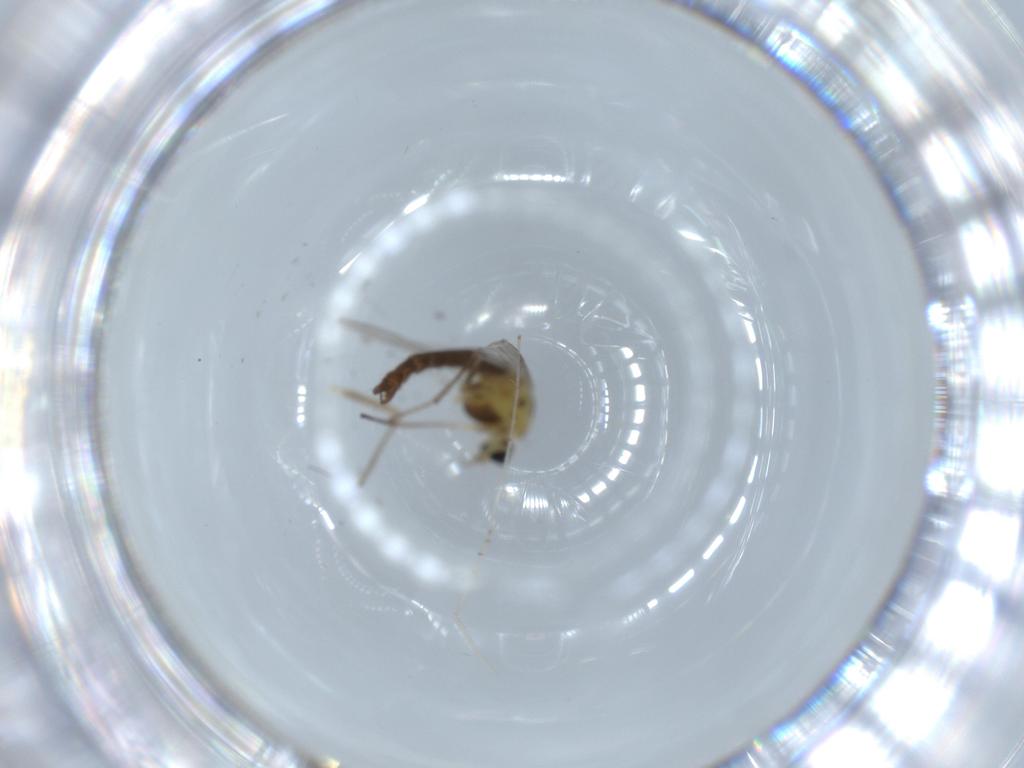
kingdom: Animalia
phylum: Arthropoda
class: Insecta
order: Diptera
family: Chironomidae
